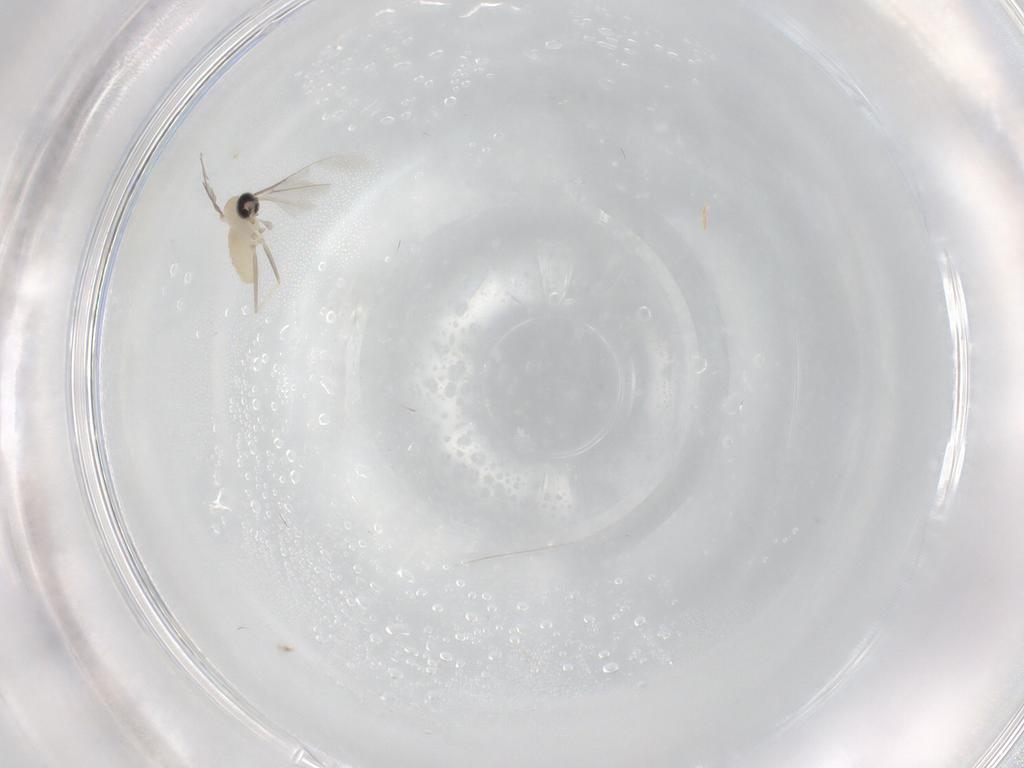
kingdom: Animalia
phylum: Arthropoda
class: Insecta
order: Diptera
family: Cecidomyiidae
